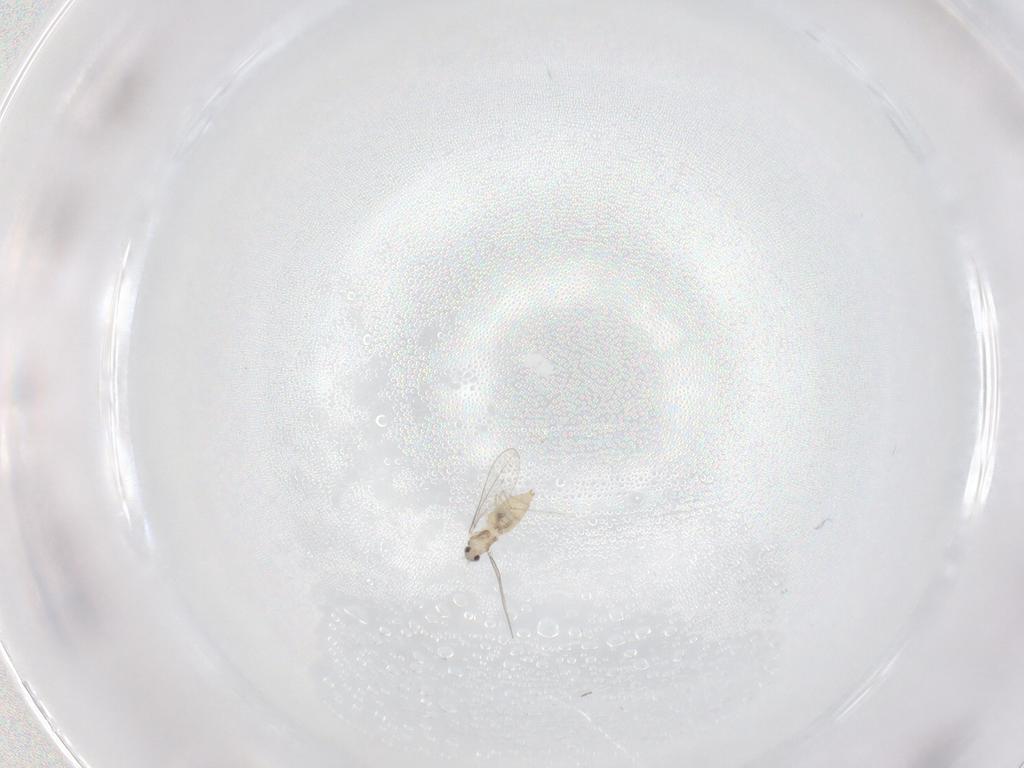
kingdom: Animalia
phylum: Arthropoda
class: Insecta
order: Diptera
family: Cecidomyiidae
